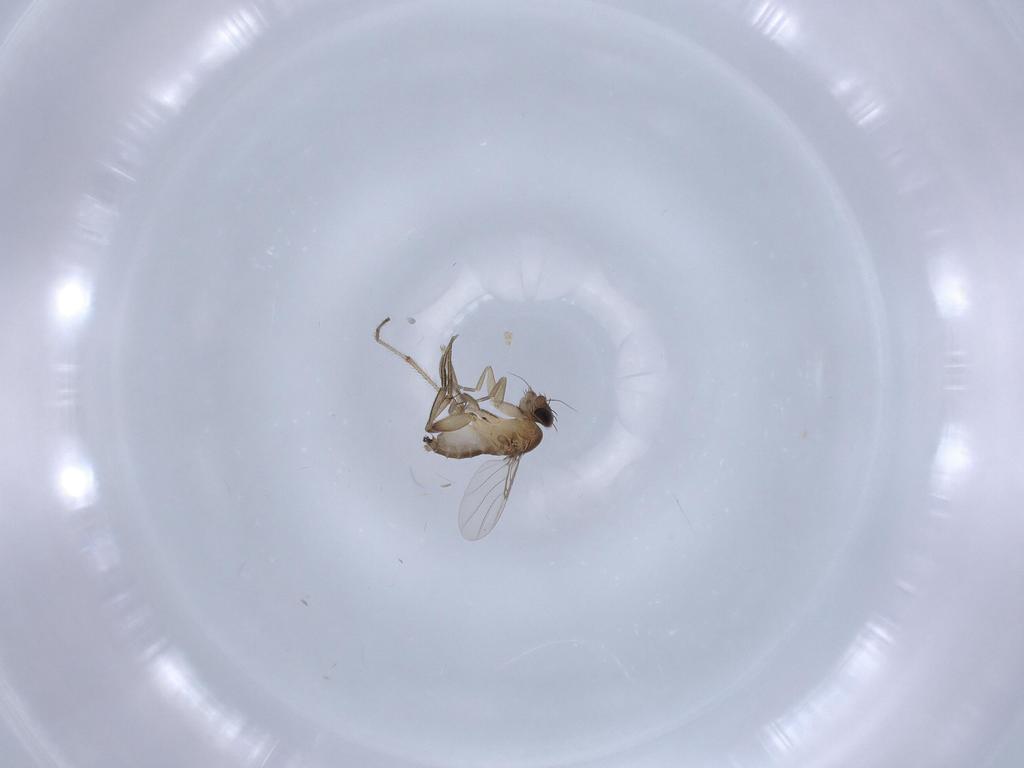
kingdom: Animalia
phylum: Arthropoda
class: Insecta
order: Diptera
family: Phoridae
